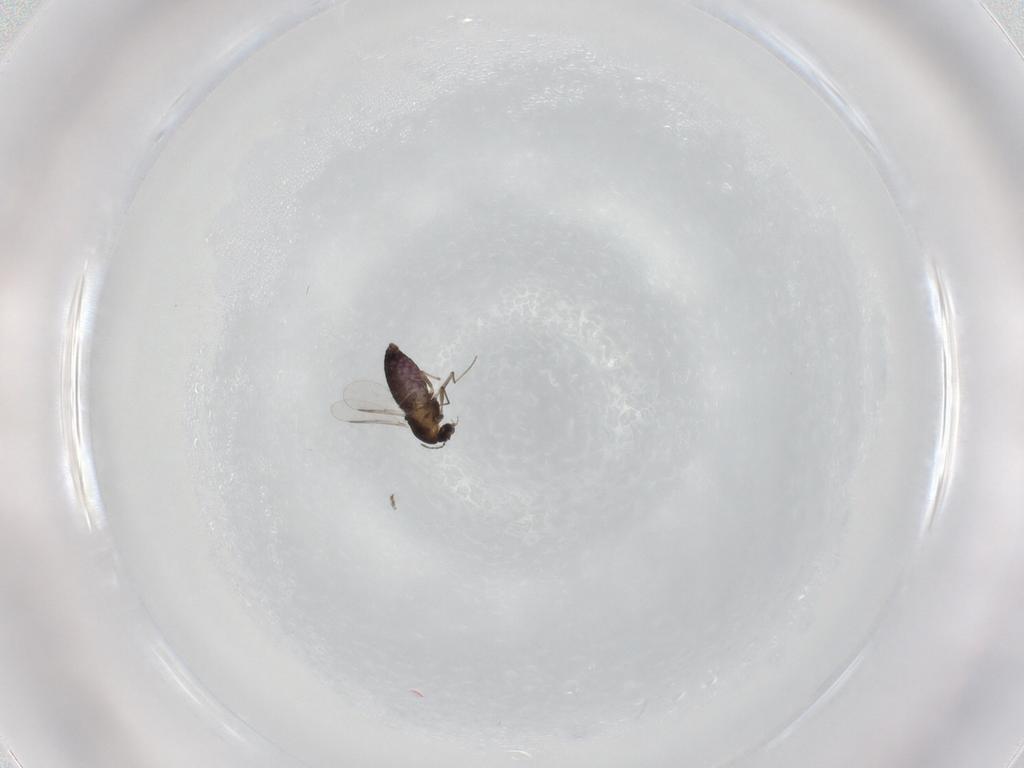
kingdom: Animalia
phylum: Arthropoda
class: Insecta
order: Diptera
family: Chironomidae
